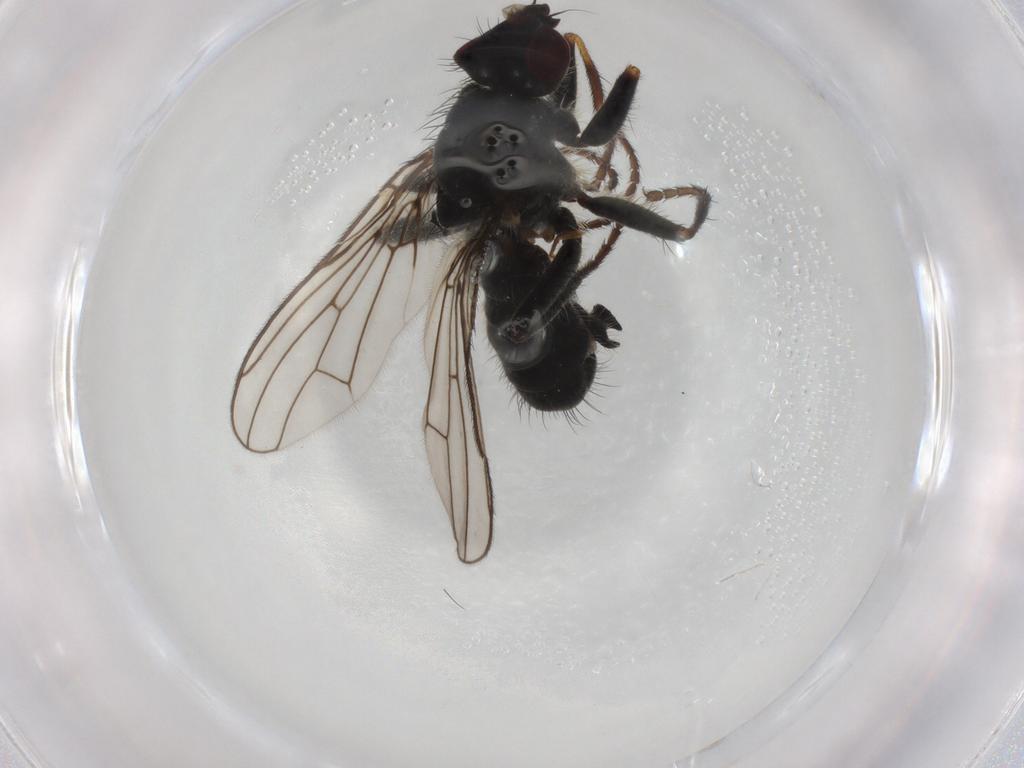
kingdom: Animalia
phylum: Arthropoda
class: Insecta
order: Diptera
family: Scathophagidae
